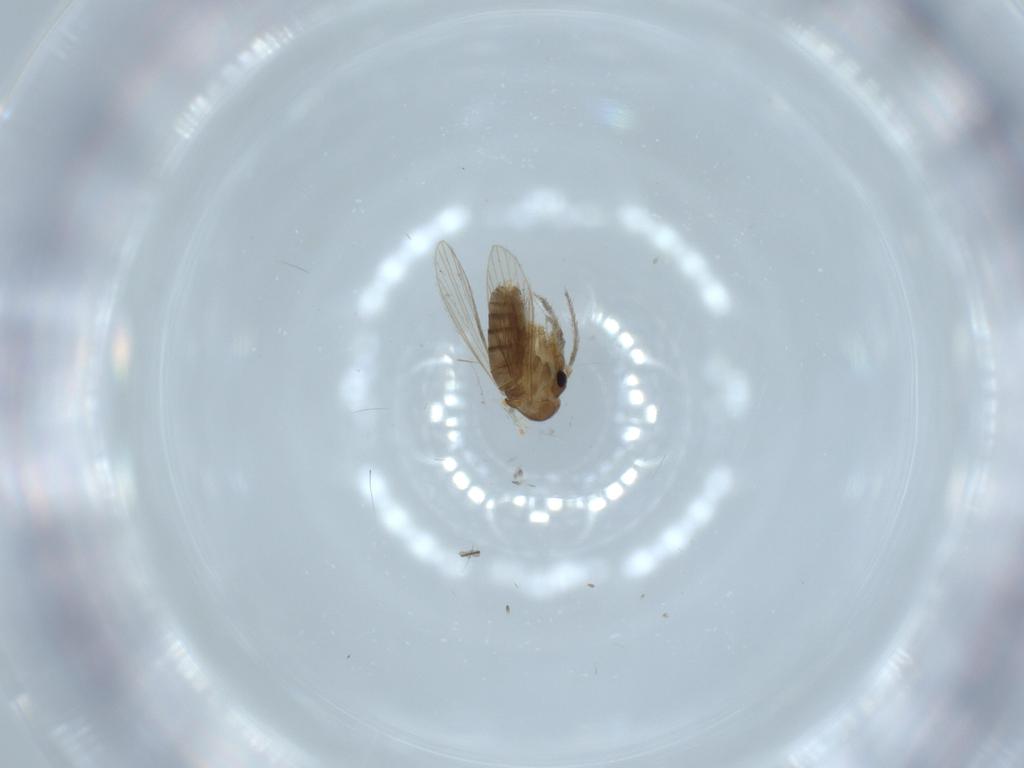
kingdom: Animalia
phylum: Arthropoda
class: Insecta
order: Diptera
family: Psychodidae
